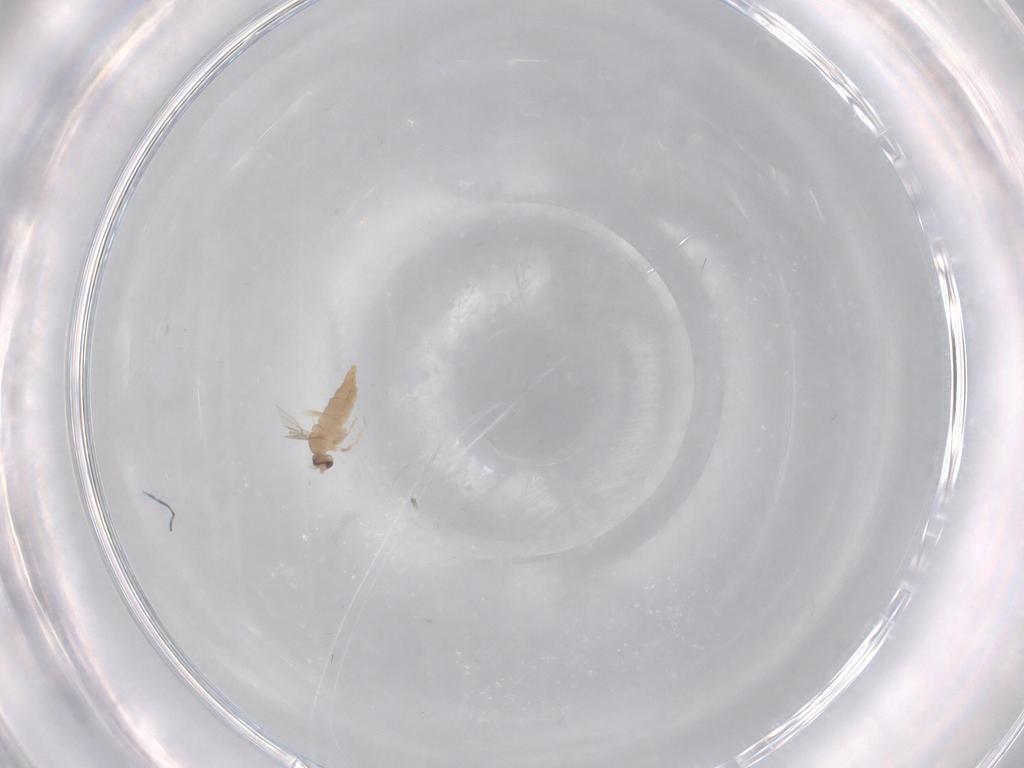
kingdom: Animalia
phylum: Arthropoda
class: Insecta
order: Diptera
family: Cecidomyiidae
